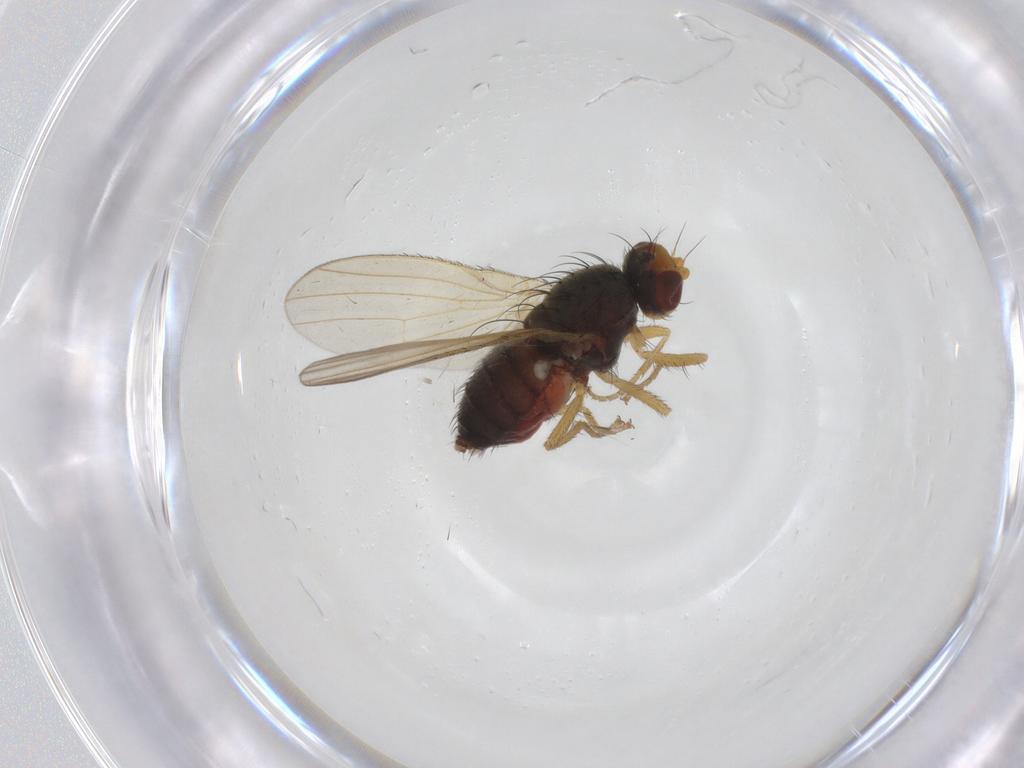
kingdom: Animalia
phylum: Arthropoda
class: Insecta
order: Diptera
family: Heleomyzidae
